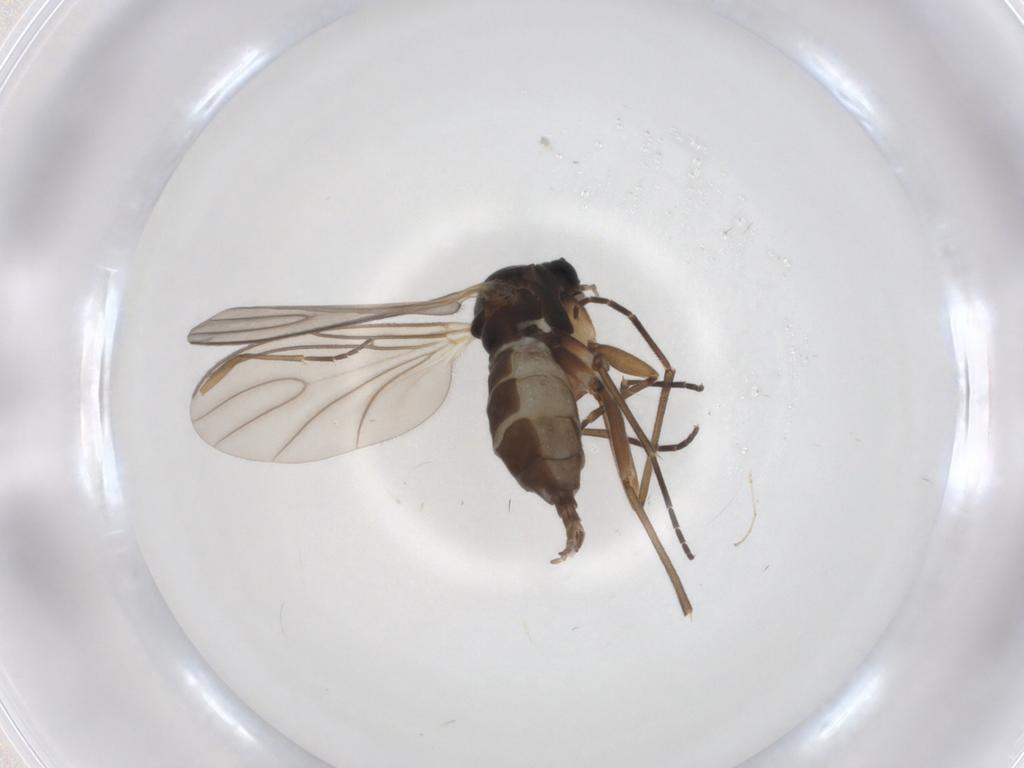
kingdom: Animalia
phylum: Arthropoda
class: Insecta
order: Diptera
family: Sciaridae
